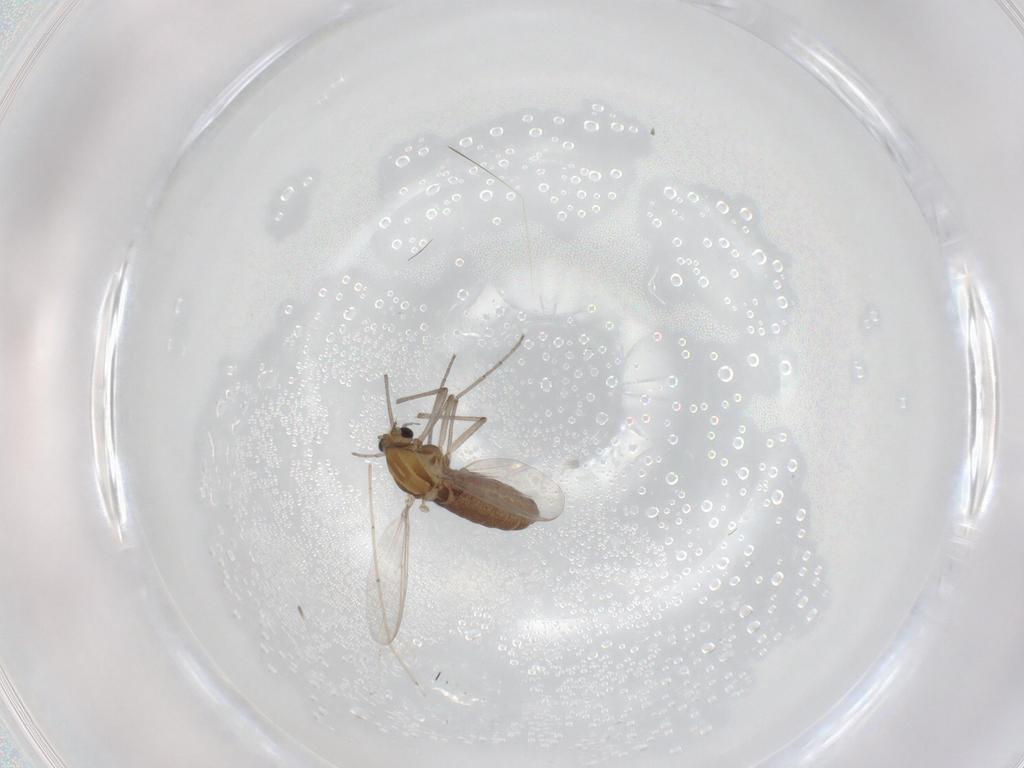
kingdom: Animalia
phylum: Arthropoda
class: Insecta
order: Diptera
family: Chironomidae
